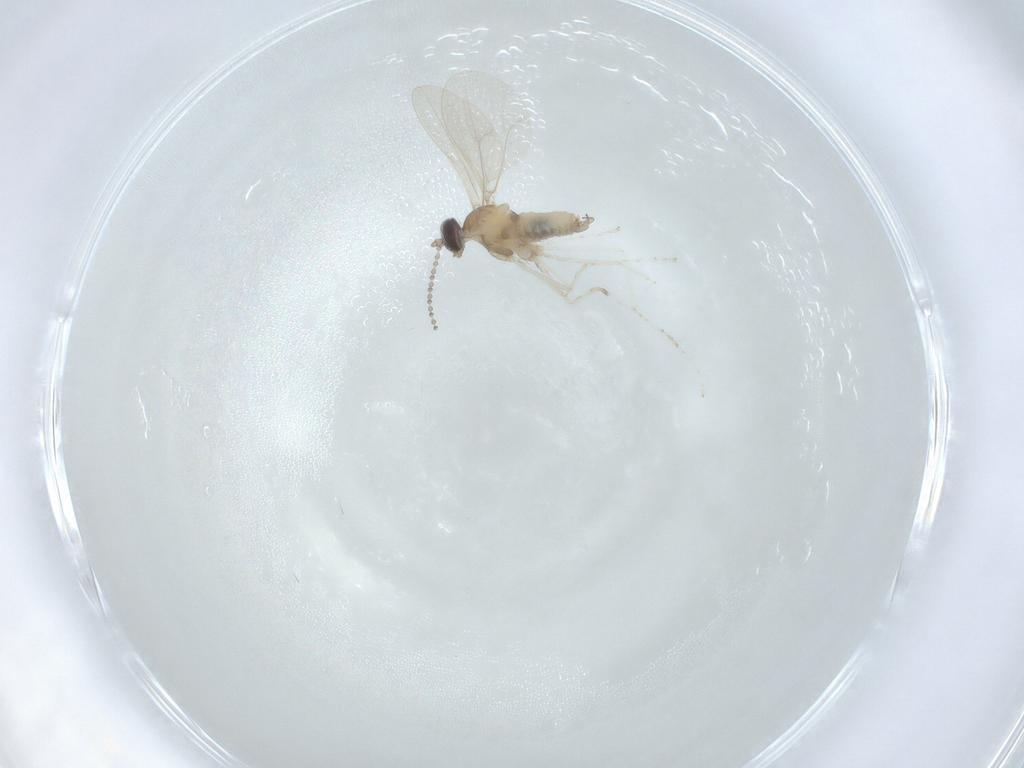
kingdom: Animalia
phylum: Arthropoda
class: Insecta
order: Diptera
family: Cecidomyiidae
